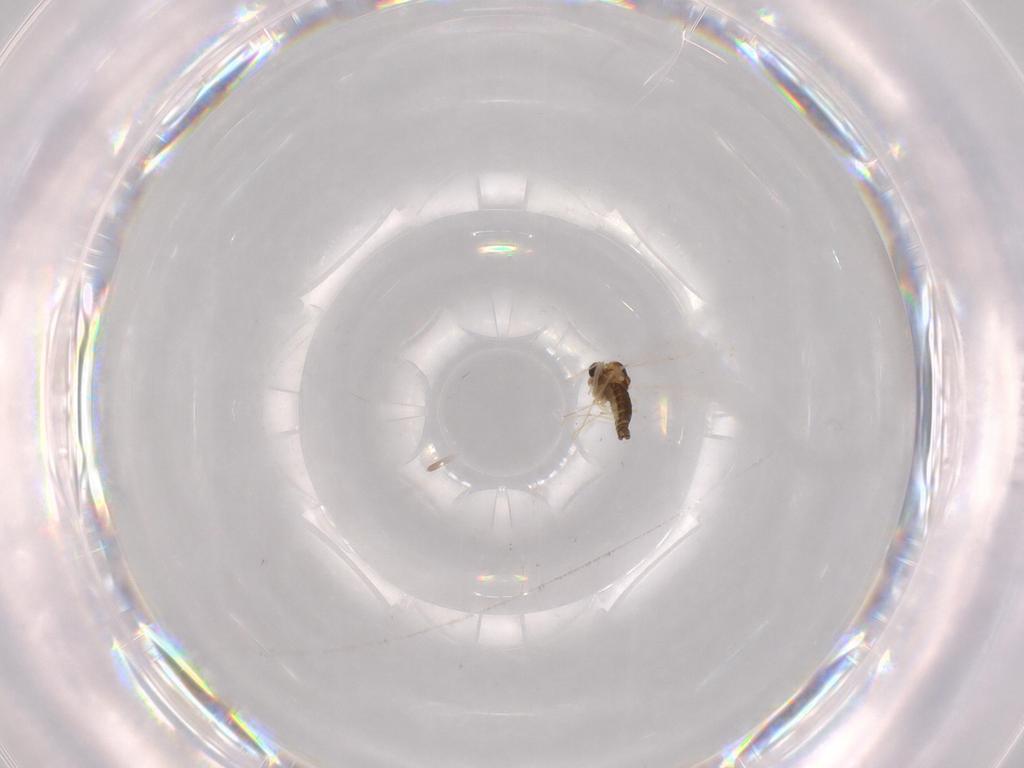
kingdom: Animalia
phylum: Arthropoda
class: Insecta
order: Diptera
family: Chironomidae
